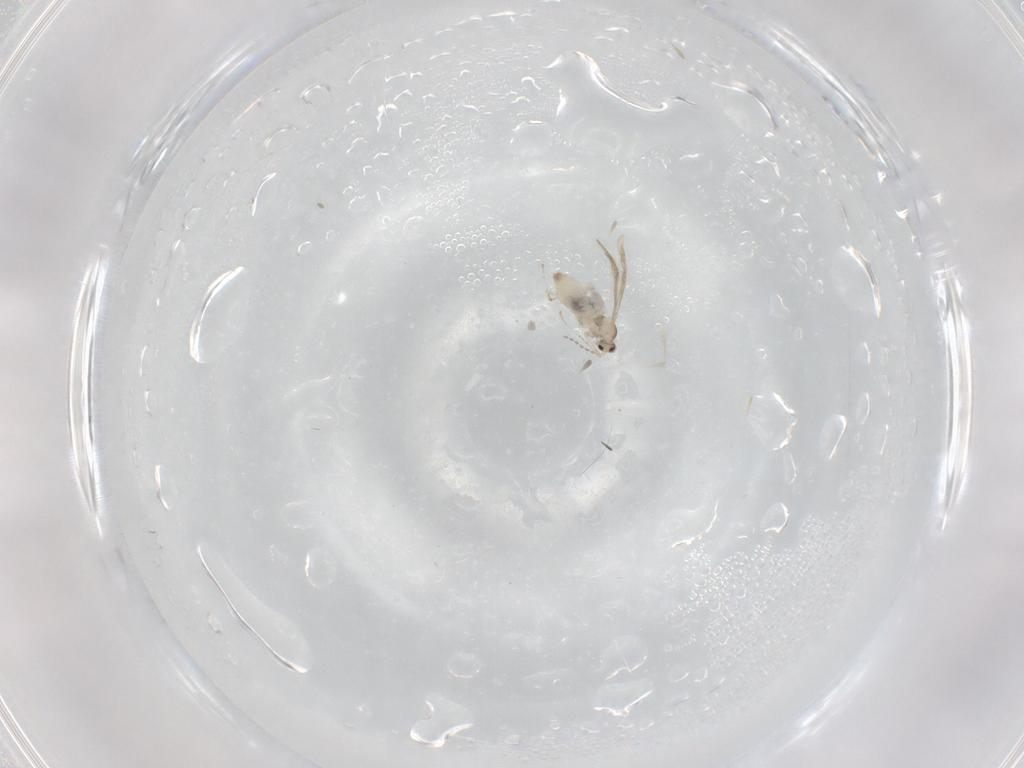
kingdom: Animalia
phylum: Arthropoda
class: Insecta
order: Diptera
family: Cecidomyiidae
